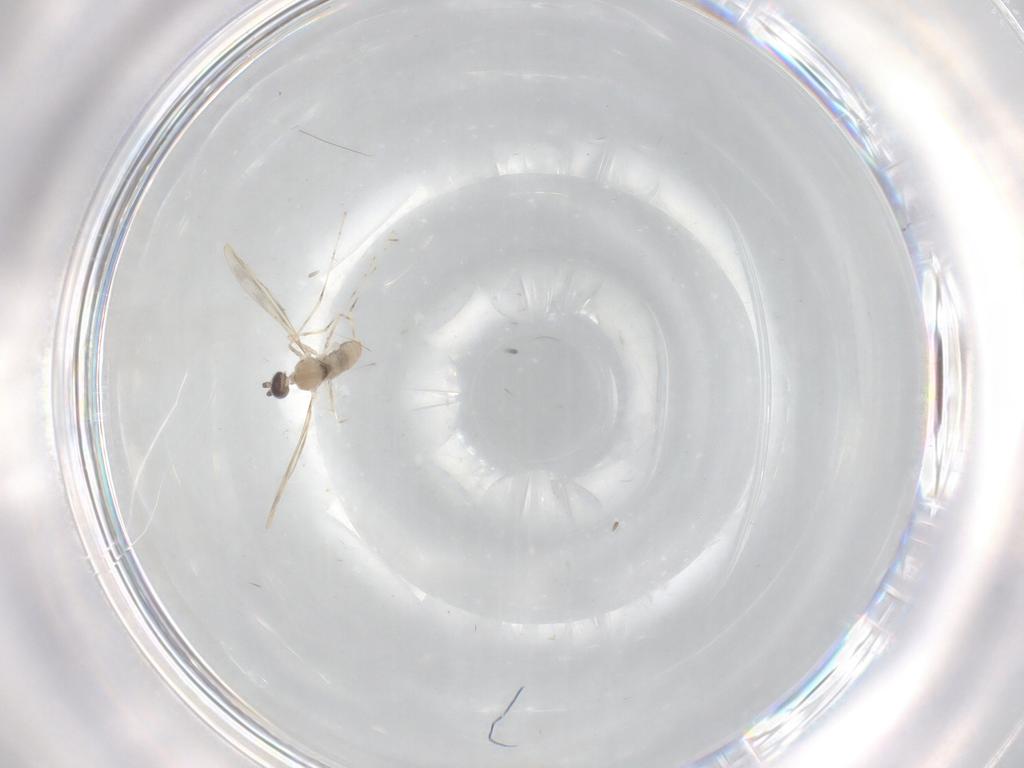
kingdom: Animalia
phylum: Arthropoda
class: Insecta
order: Diptera
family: Cecidomyiidae
